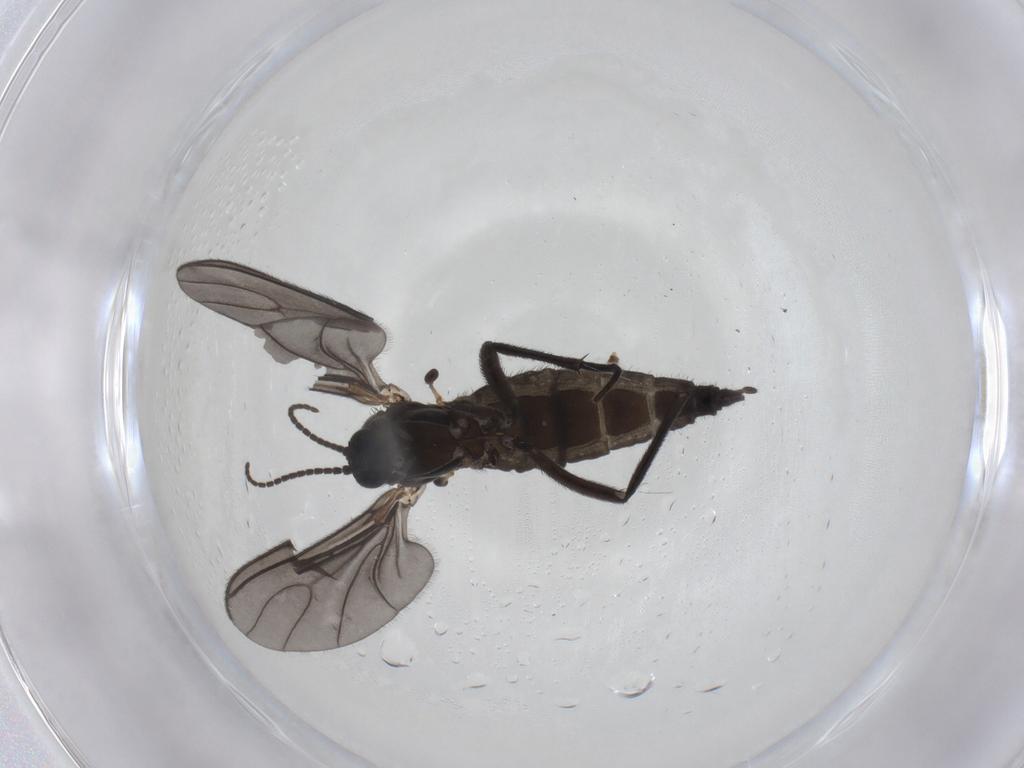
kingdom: Animalia
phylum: Arthropoda
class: Insecta
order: Diptera
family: Sciaridae
